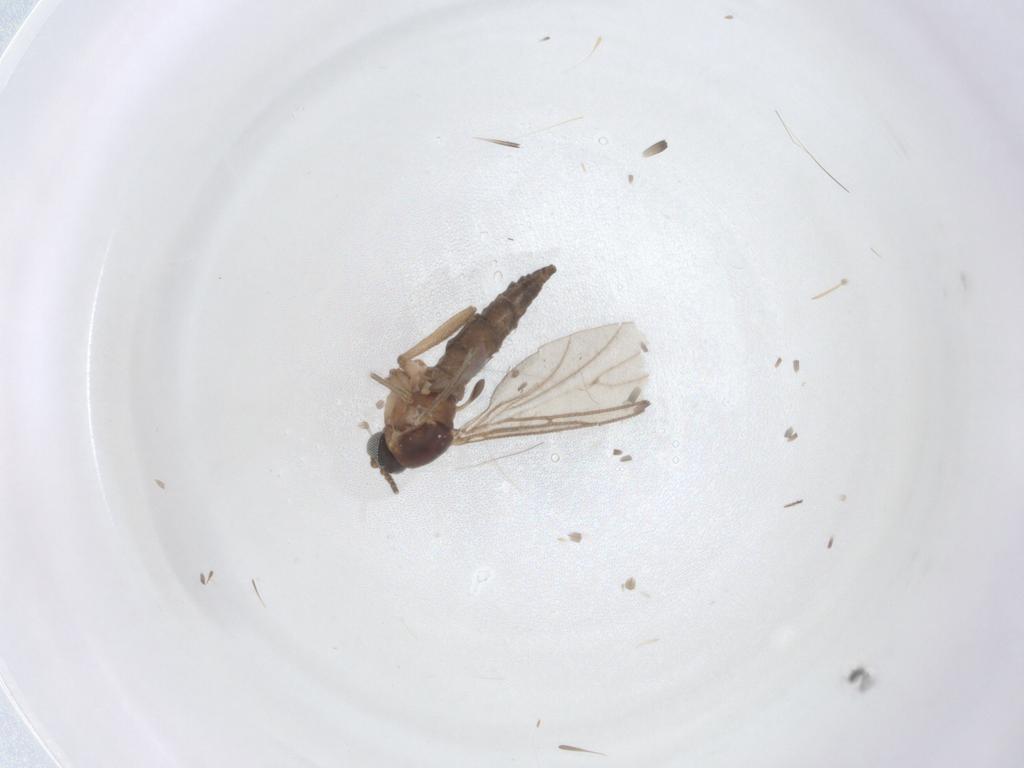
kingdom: Animalia
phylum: Arthropoda
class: Insecta
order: Diptera
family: Sciaridae
